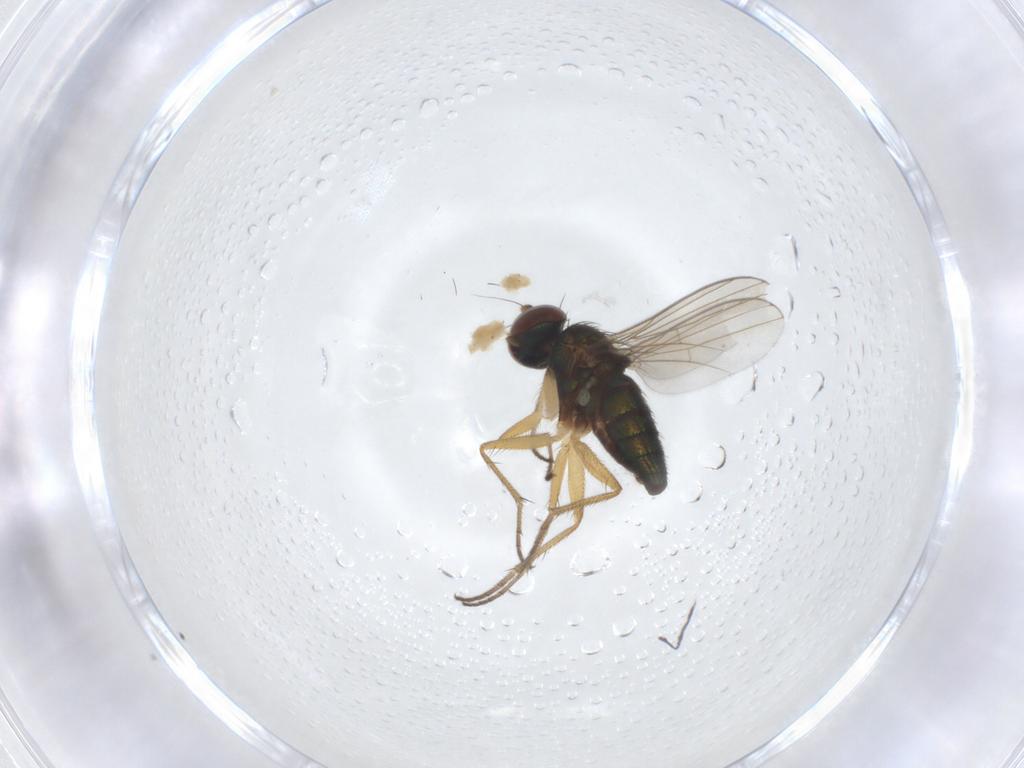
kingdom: Animalia
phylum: Arthropoda
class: Insecta
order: Diptera
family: Dolichopodidae
